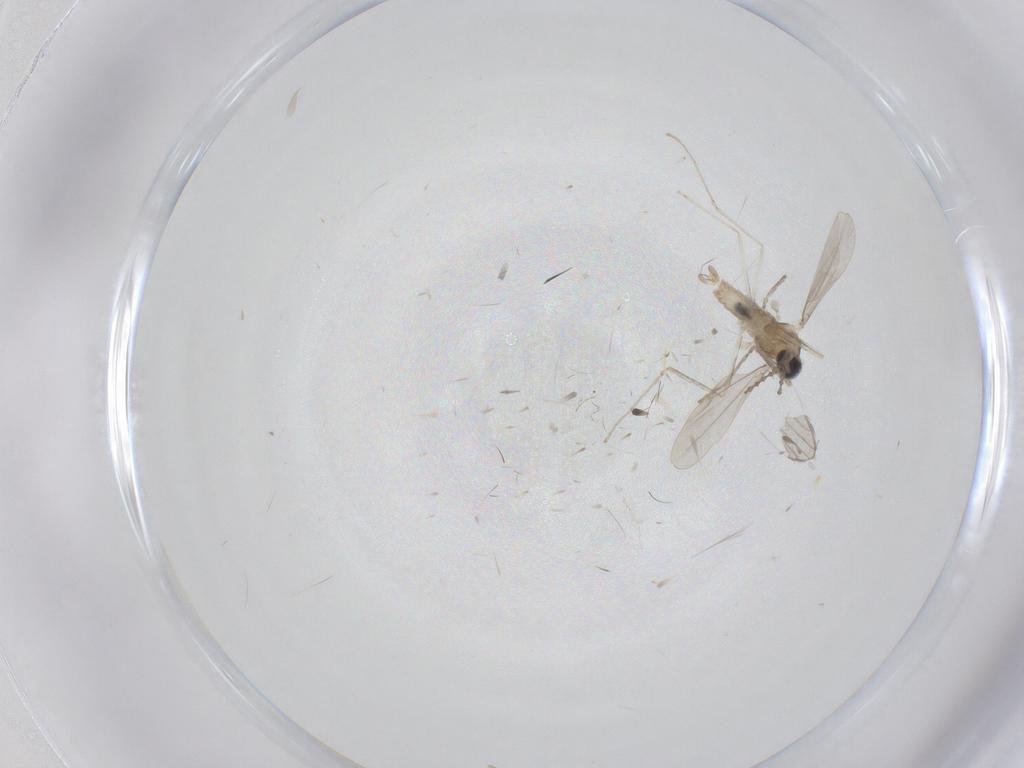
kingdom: Animalia
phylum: Arthropoda
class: Insecta
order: Diptera
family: Cecidomyiidae
